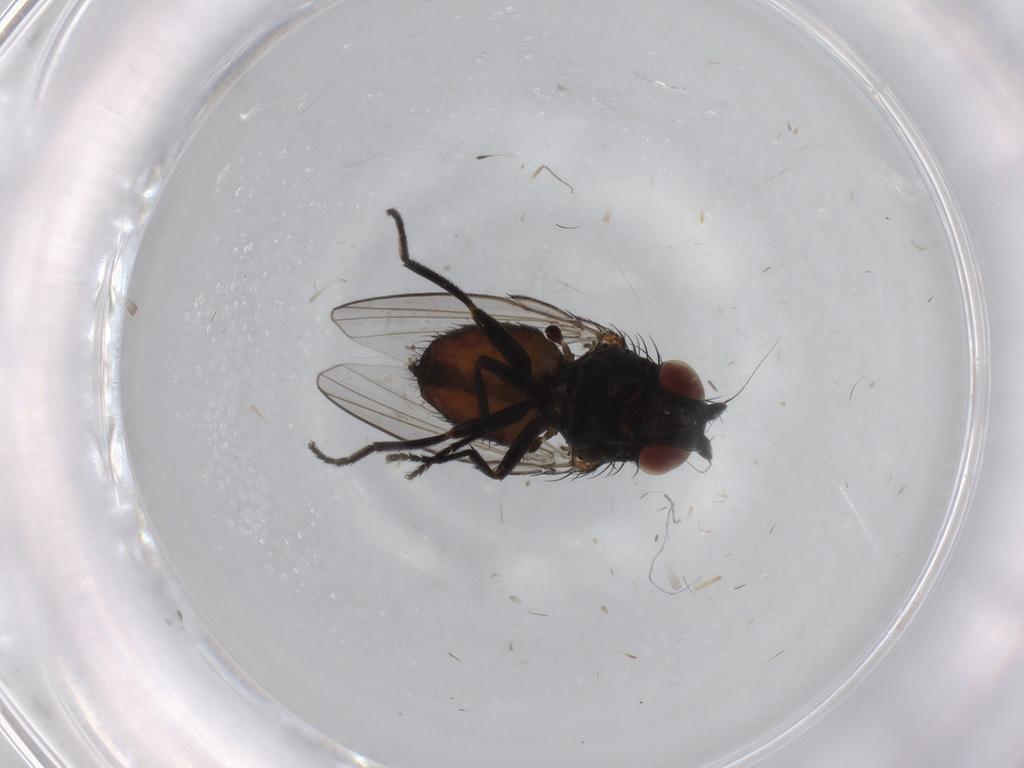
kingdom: Animalia
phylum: Arthropoda
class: Insecta
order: Diptera
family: Milichiidae
